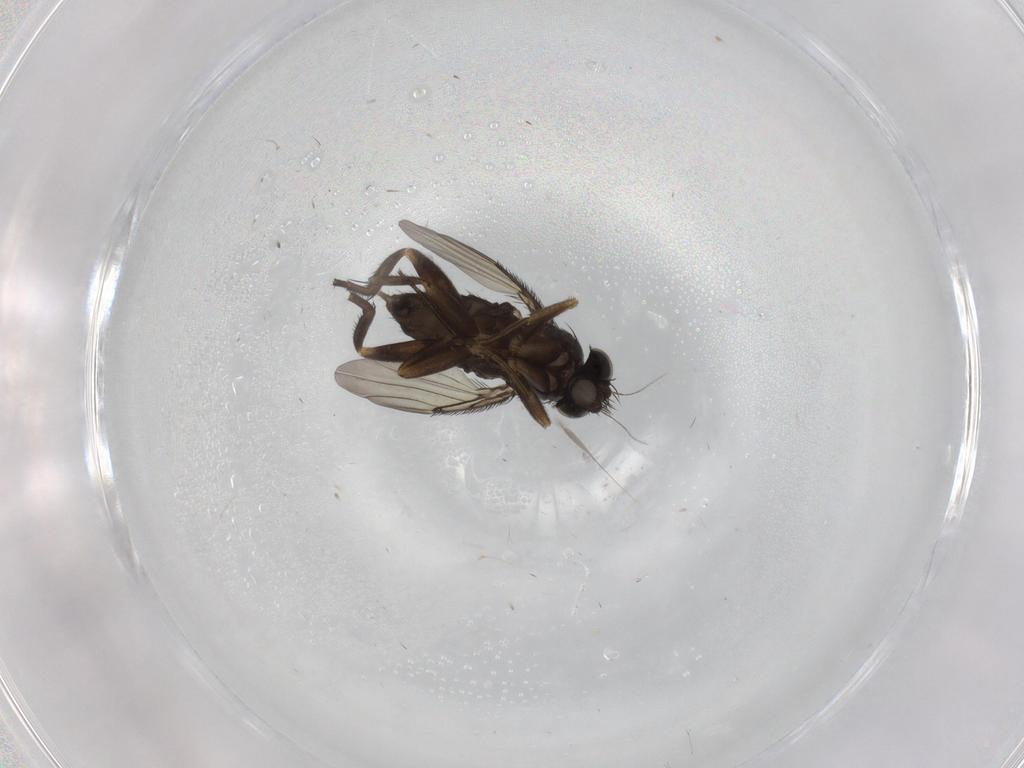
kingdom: Animalia
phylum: Arthropoda
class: Insecta
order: Diptera
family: Phoridae
